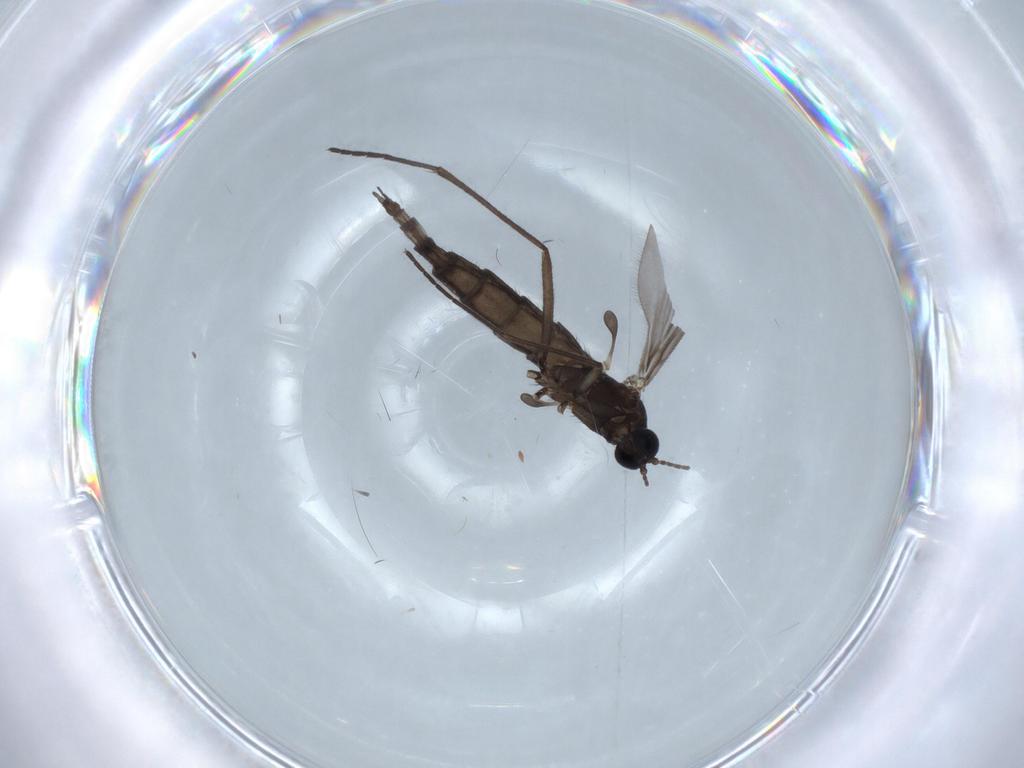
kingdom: Animalia
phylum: Arthropoda
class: Insecta
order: Diptera
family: Sciaridae
